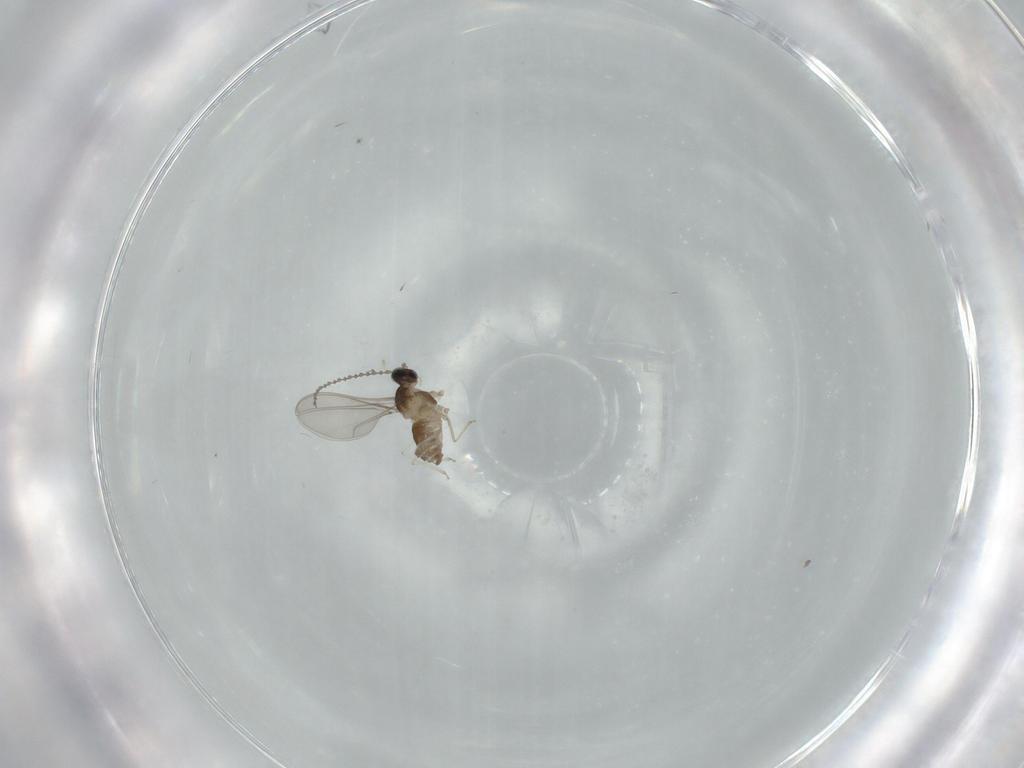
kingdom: Animalia
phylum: Arthropoda
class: Insecta
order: Diptera
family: Cecidomyiidae
